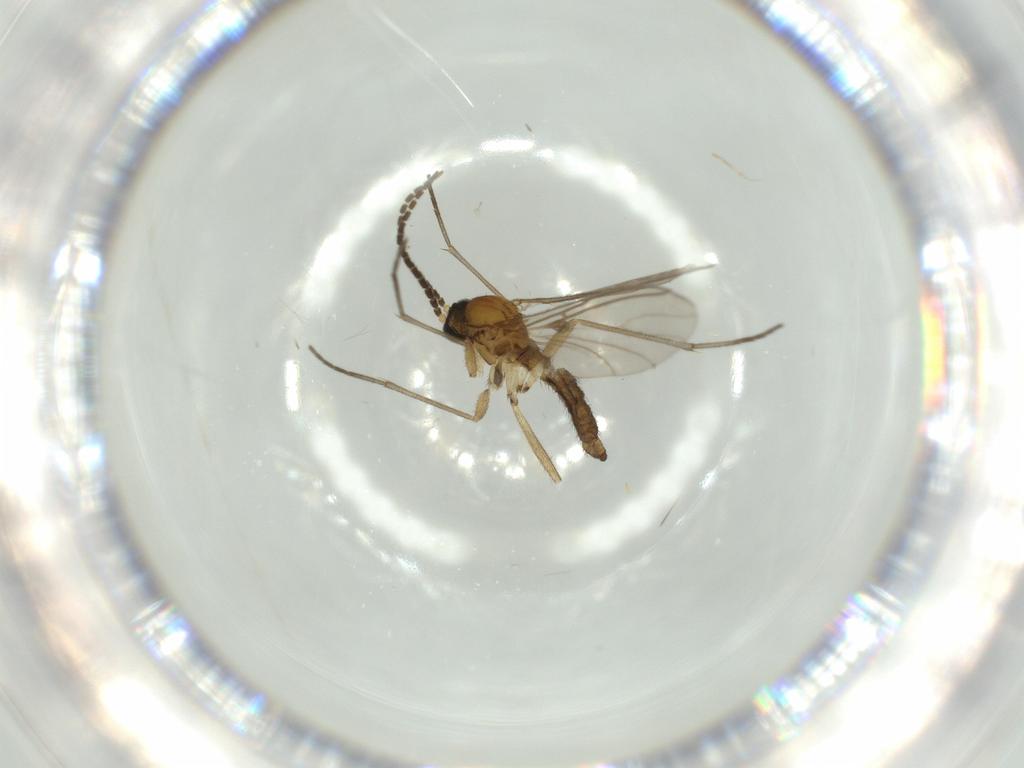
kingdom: Animalia
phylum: Arthropoda
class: Insecta
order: Diptera
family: Sciaridae
